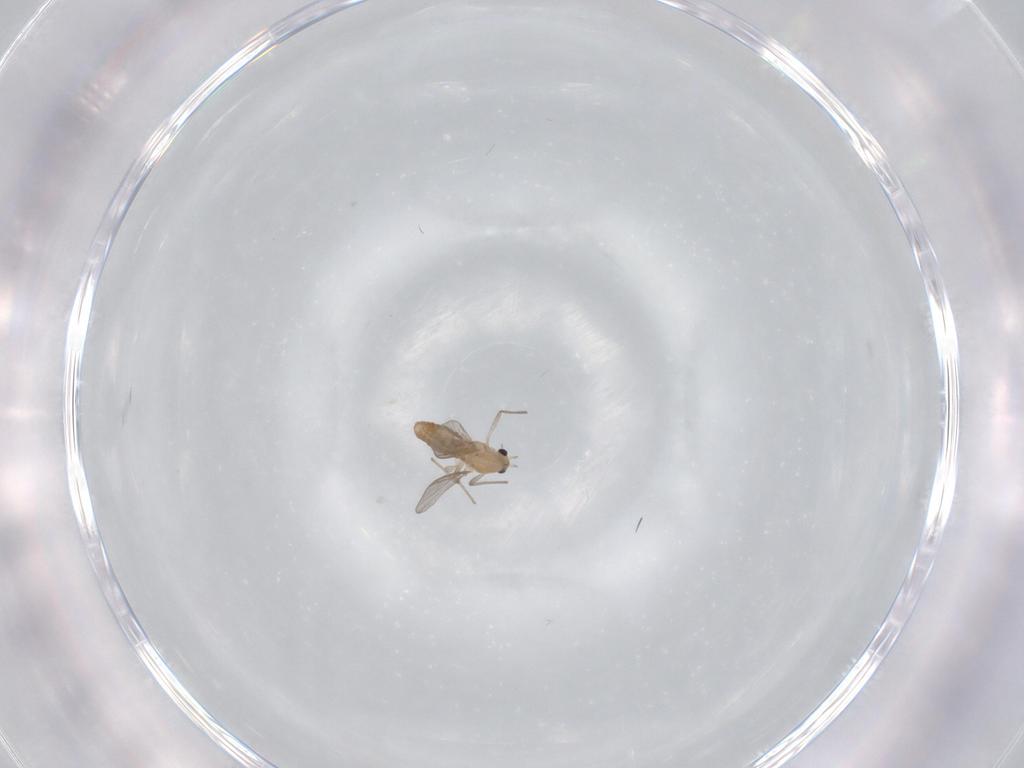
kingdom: Animalia
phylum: Arthropoda
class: Insecta
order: Diptera
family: Chironomidae
